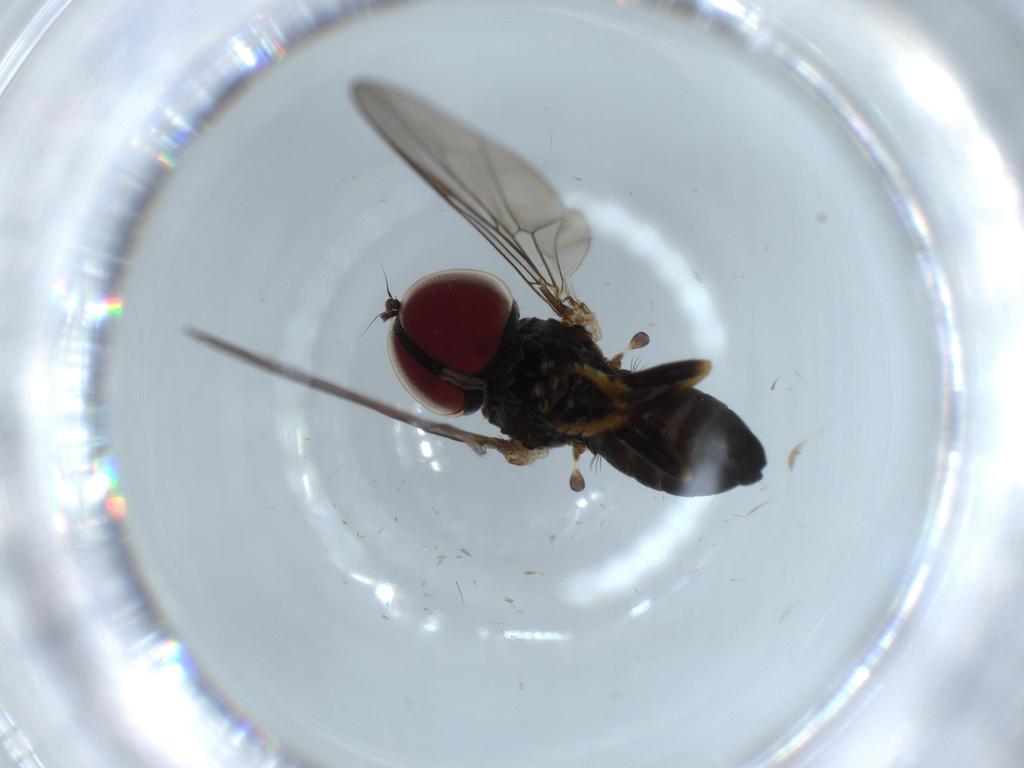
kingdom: Animalia
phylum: Arthropoda
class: Insecta
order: Diptera
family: Pipunculidae
